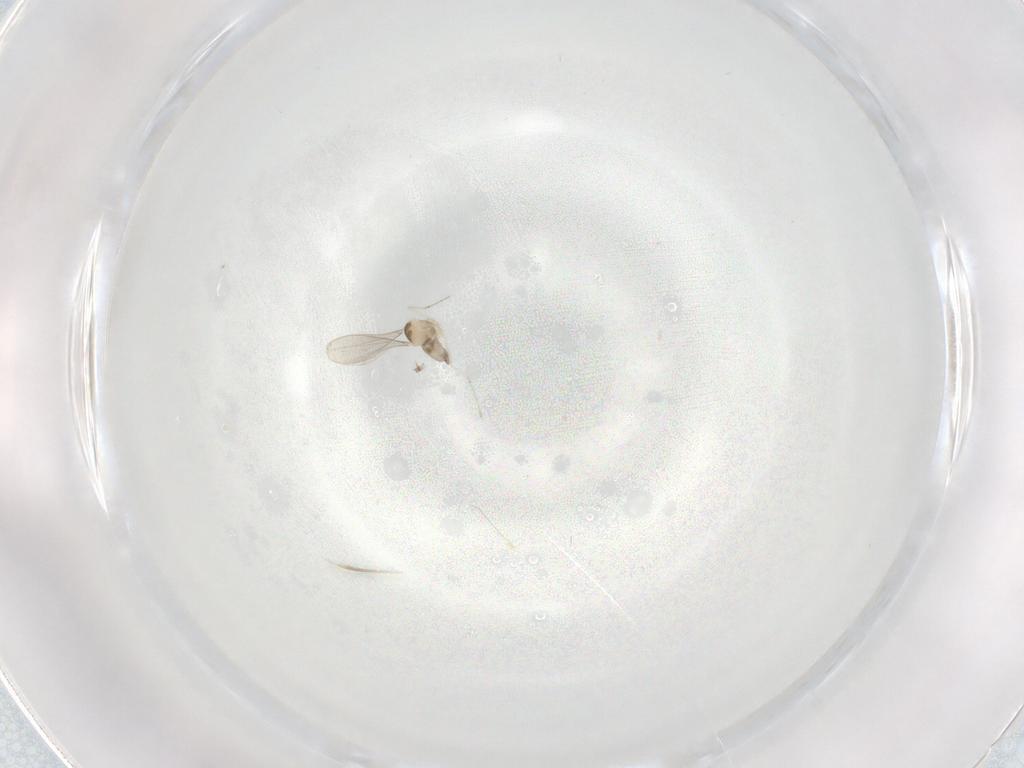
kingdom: Animalia
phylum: Arthropoda
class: Insecta
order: Diptera
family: Cecidomyiidae
